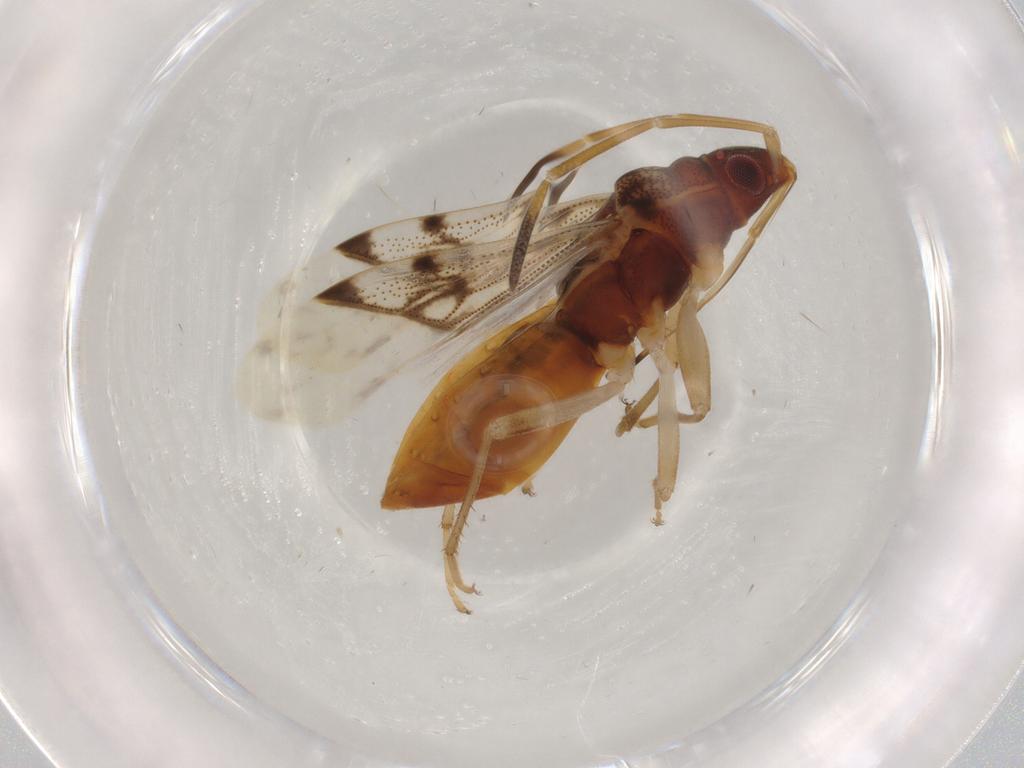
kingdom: Animalia
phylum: Arthropoda
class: Insecta
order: Hemiptera
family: Rhyparochromidae
